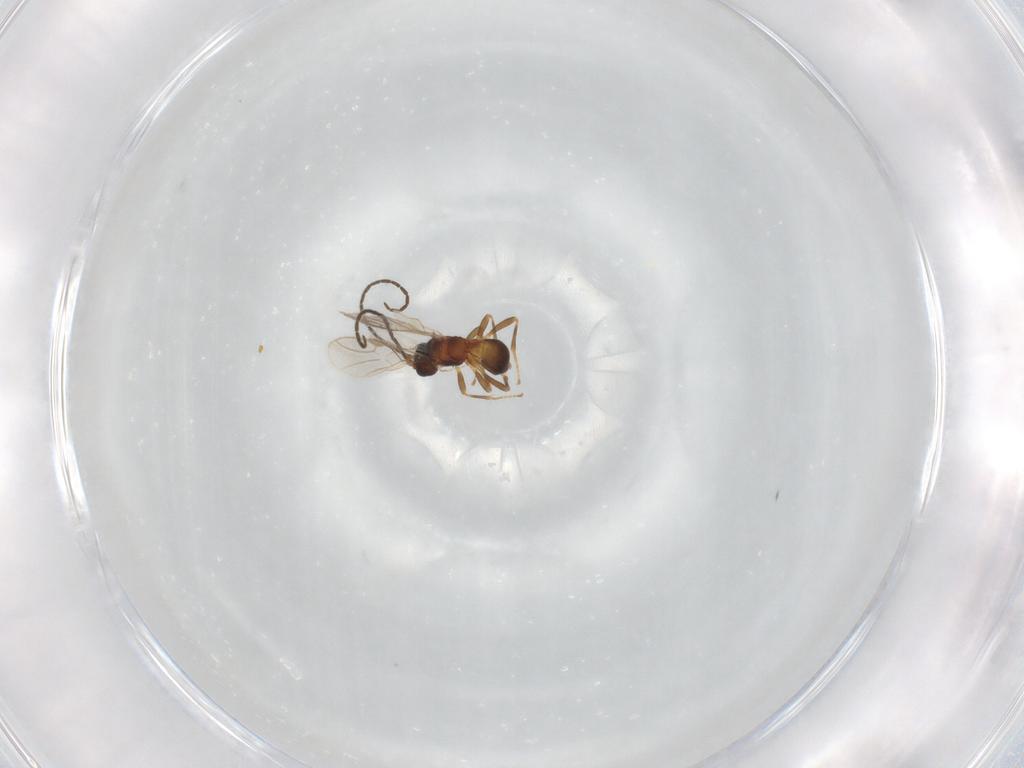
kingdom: Animalia
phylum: Arthropoda
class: Insecta
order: Hymenoptera
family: Braconidae
